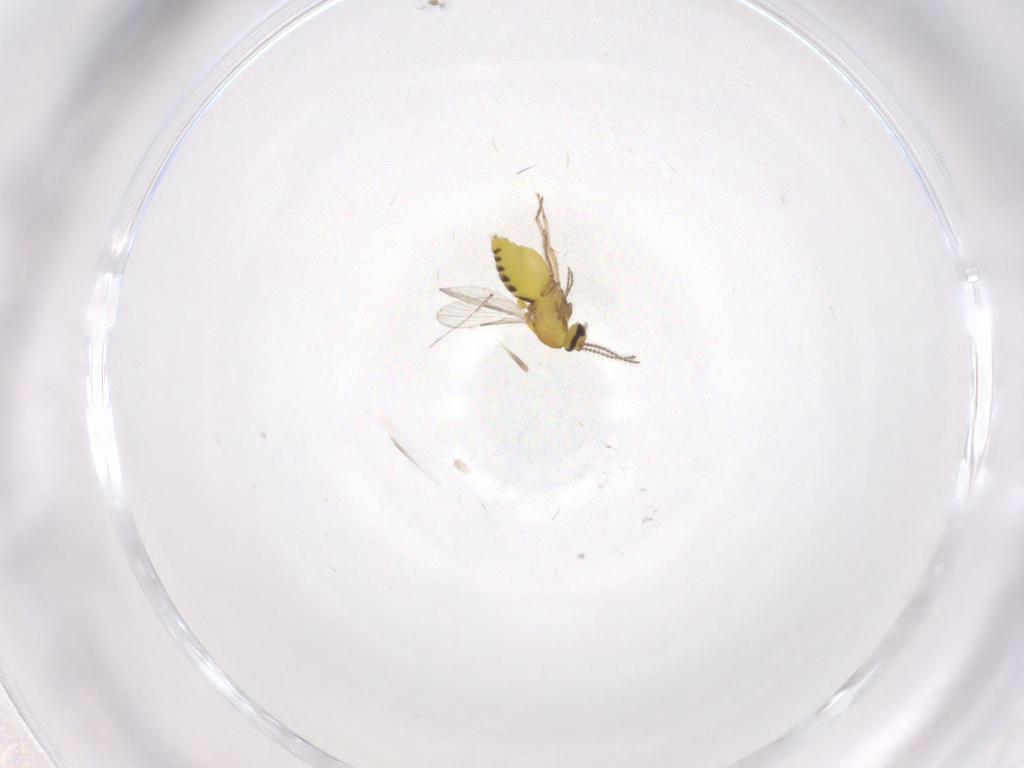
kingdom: Animalia
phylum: Arthropoda
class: Insecta
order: Diptera
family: Ceratopogonidae
